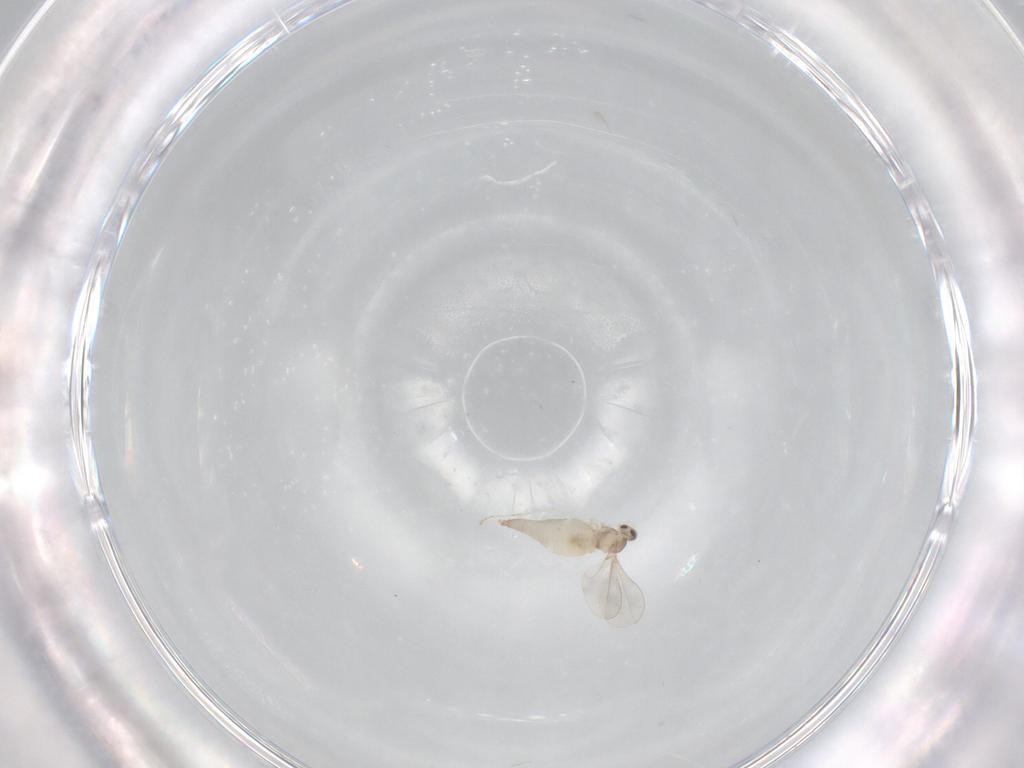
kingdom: Animalia
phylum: Arthropoda
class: Insecta
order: Diptera
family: Cecidomyiidae
